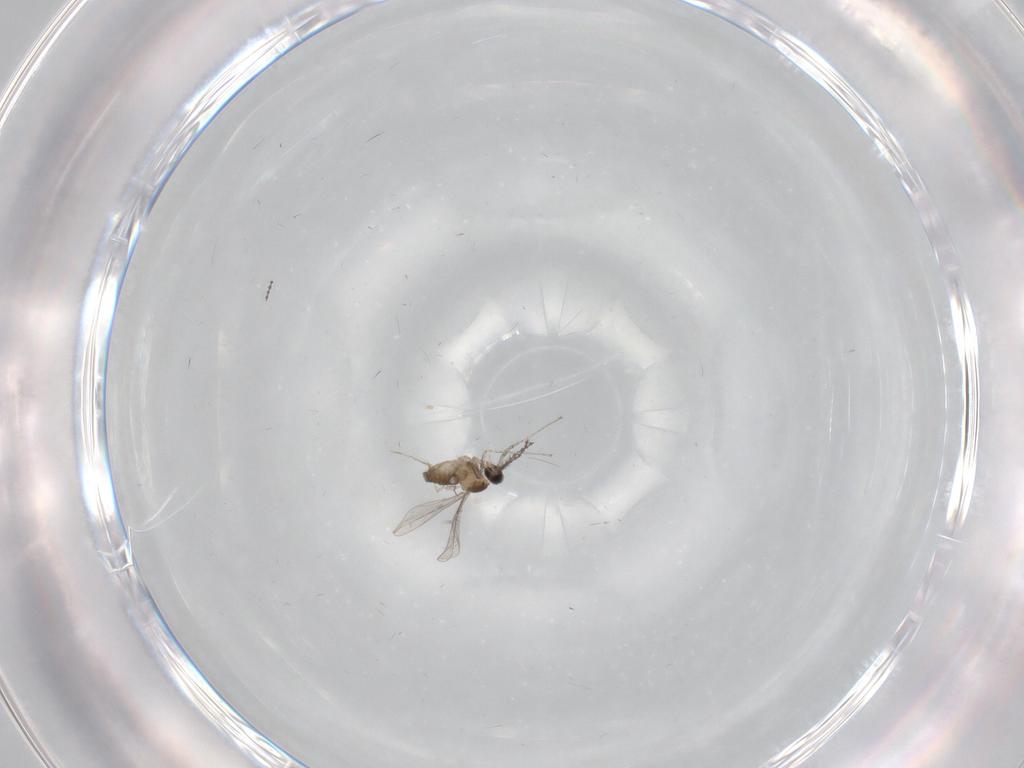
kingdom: Animalia
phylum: Arthropoda
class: Insecta
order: Diptera
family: Cecidomyiidae
